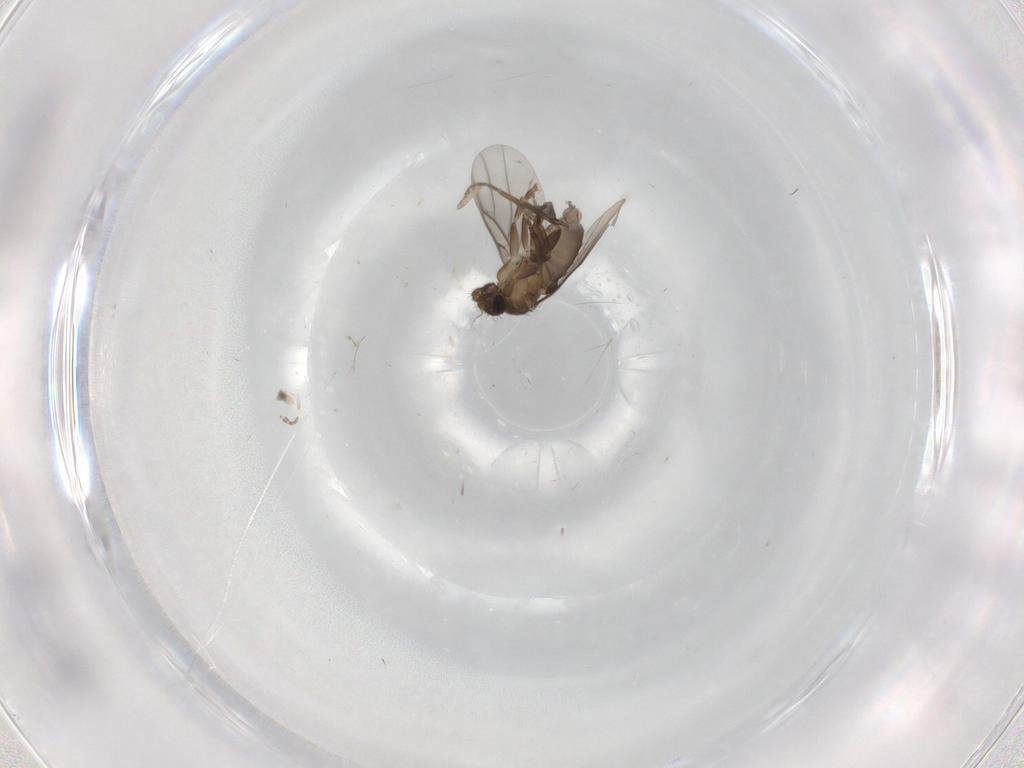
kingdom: Animalia
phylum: Arthropoda
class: Insecta
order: Diptera
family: Phoridae
